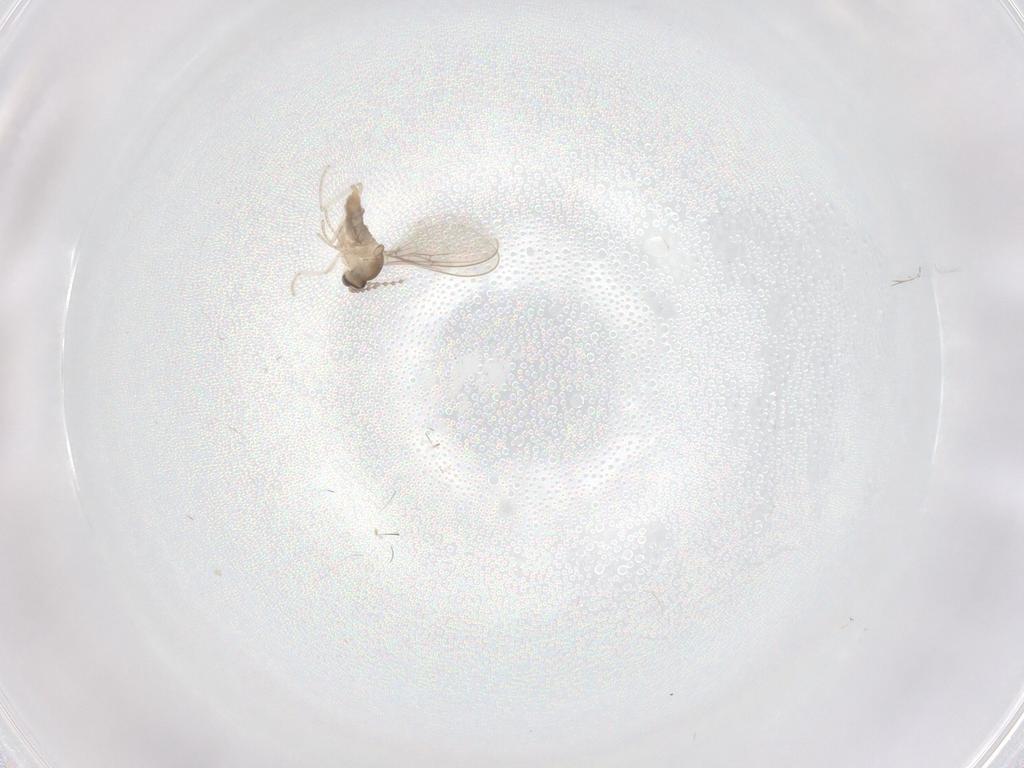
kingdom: Animalia
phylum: Arthropoda
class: Insecta
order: Diptera
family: Cecidomyiidae
